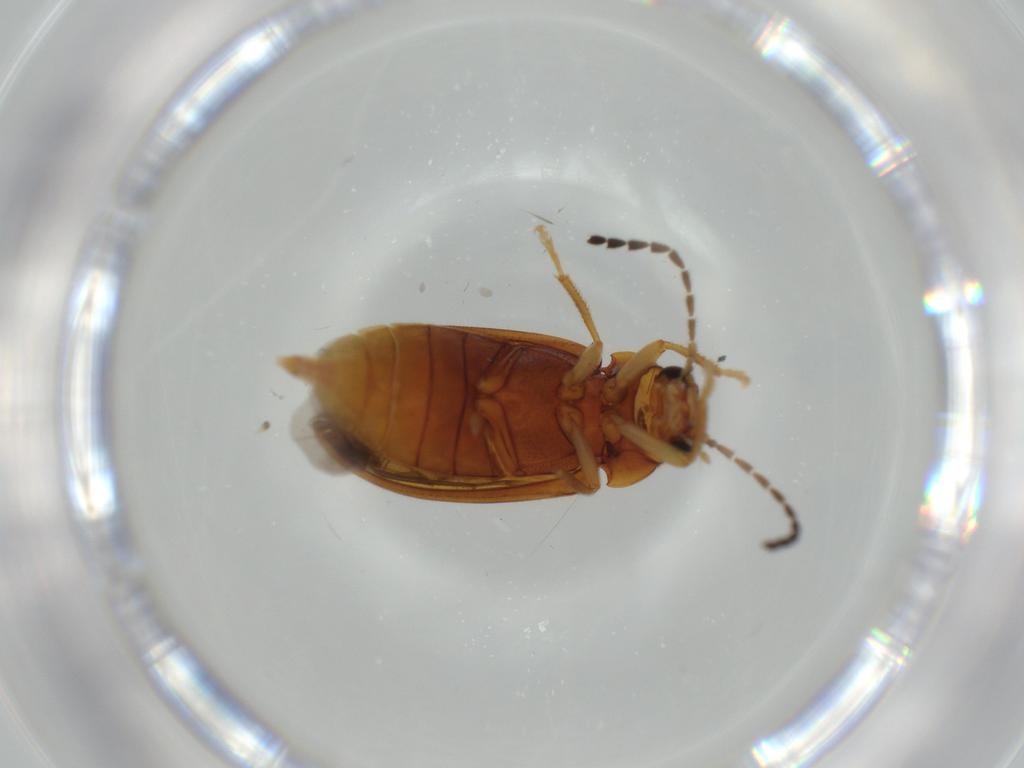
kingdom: Animalia
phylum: Arthropoda
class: Insecta
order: Coleoptera
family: Ptilodactylidae
